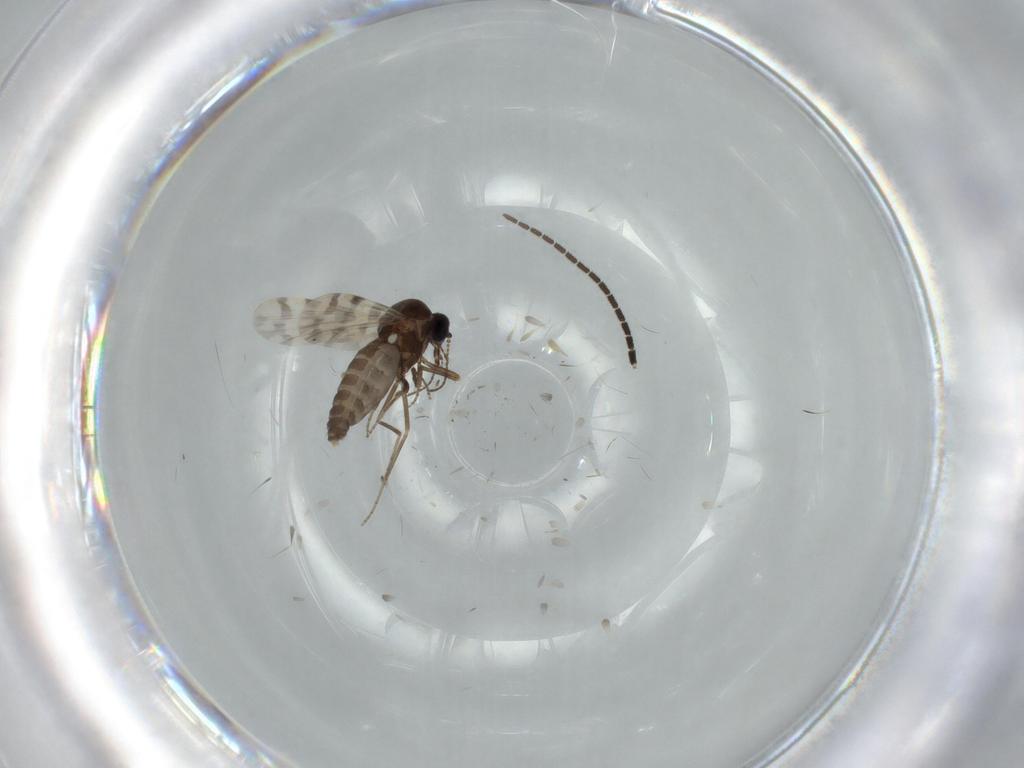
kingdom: Animalia
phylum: Arthropoda
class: Insecta
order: Diptera
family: Sciaridae
